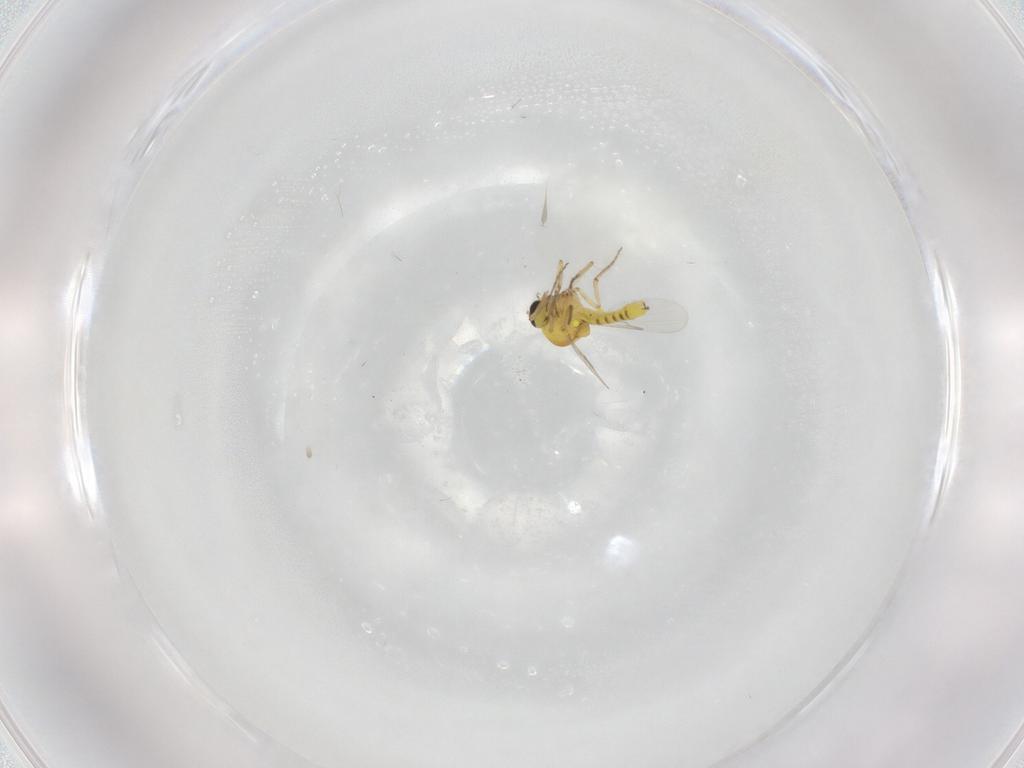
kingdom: Animalia
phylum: Arthropoda
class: Insecta
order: Diptera
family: Ceratopogonidae
